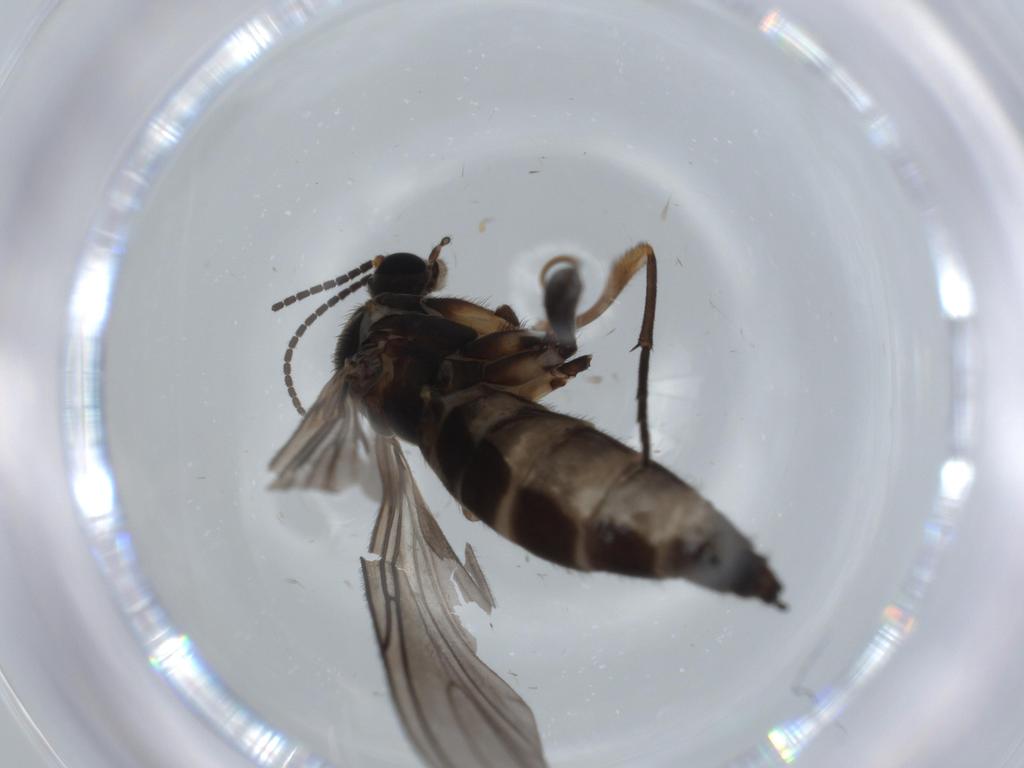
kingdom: Animalia
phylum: Arthropoda
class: Insecta
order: Diptera
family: Sciaridae
